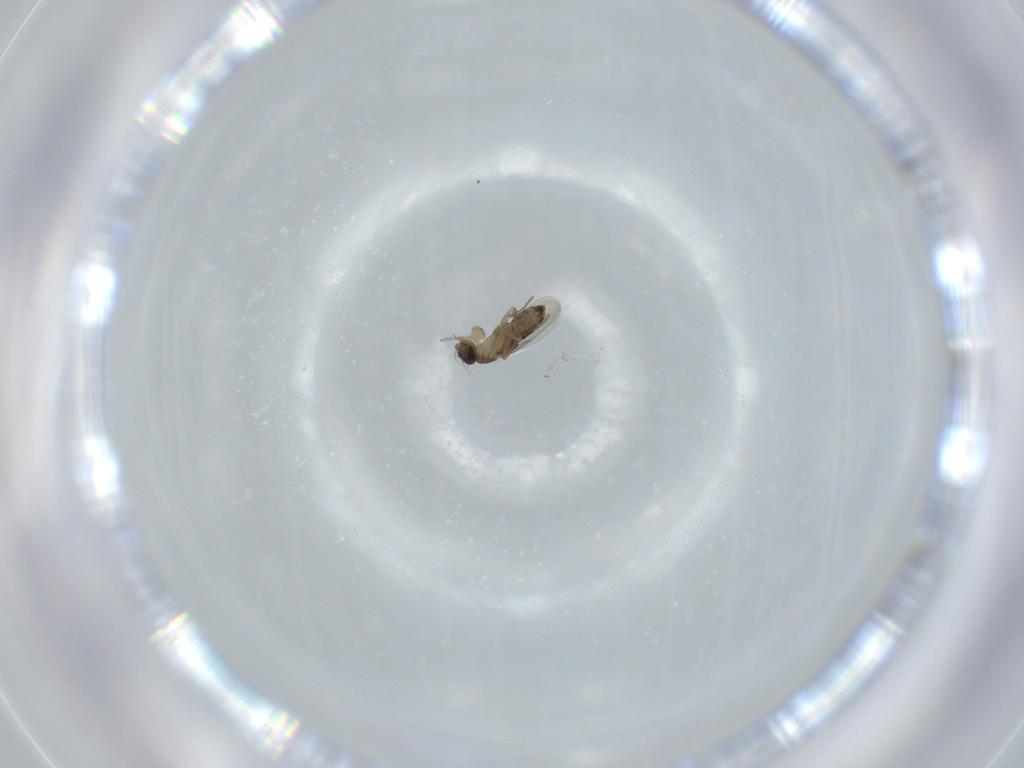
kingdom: Animalia
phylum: Arthropoda
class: Insecta
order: Diptera
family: Phoridae
